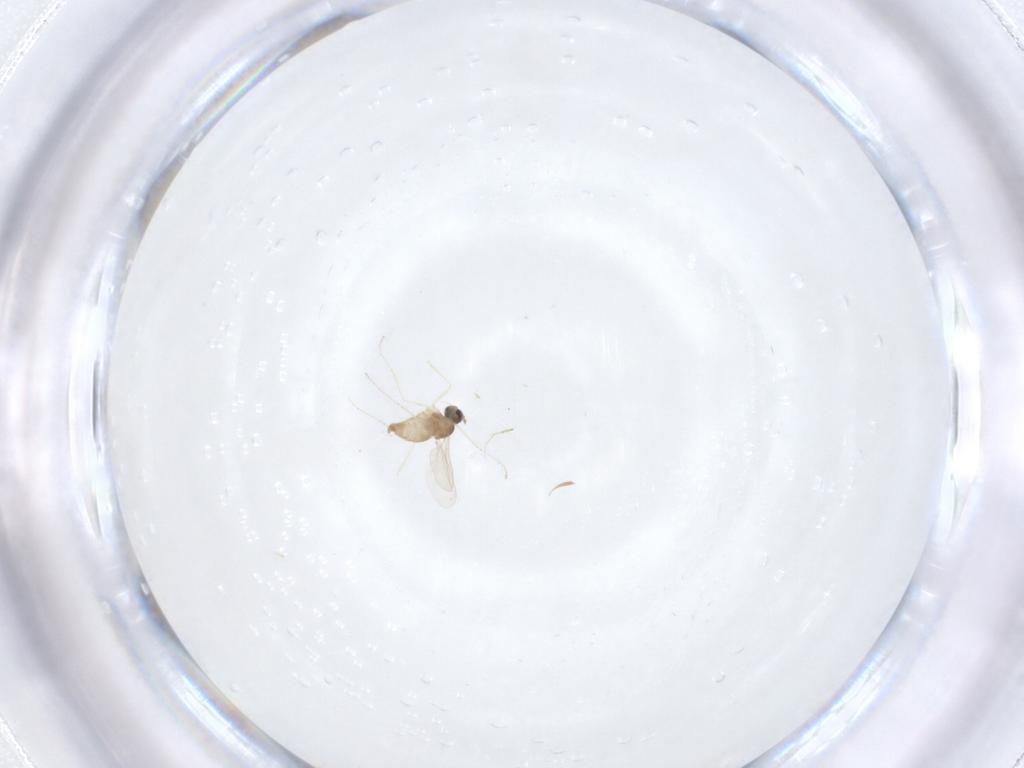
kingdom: Animalia
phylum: Arthropoda
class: Insecta
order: Diptera
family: Cecidomyiidae
